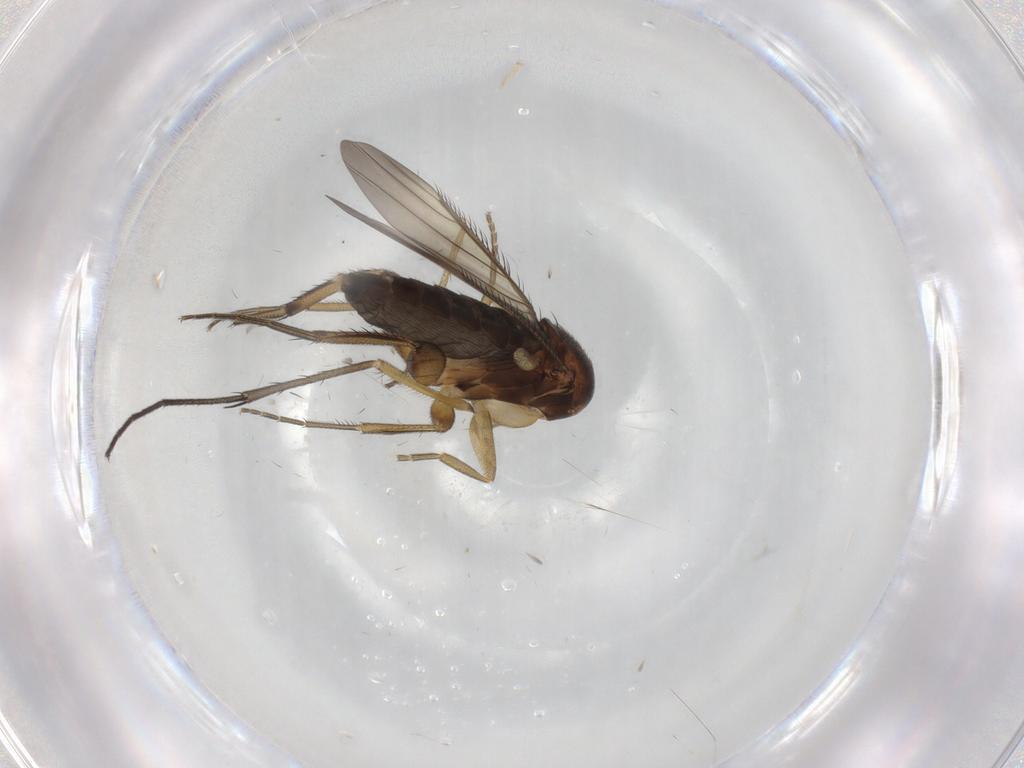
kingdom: Animalia
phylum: Arthropoda
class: Insecta
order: Diptera
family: Phoridae
